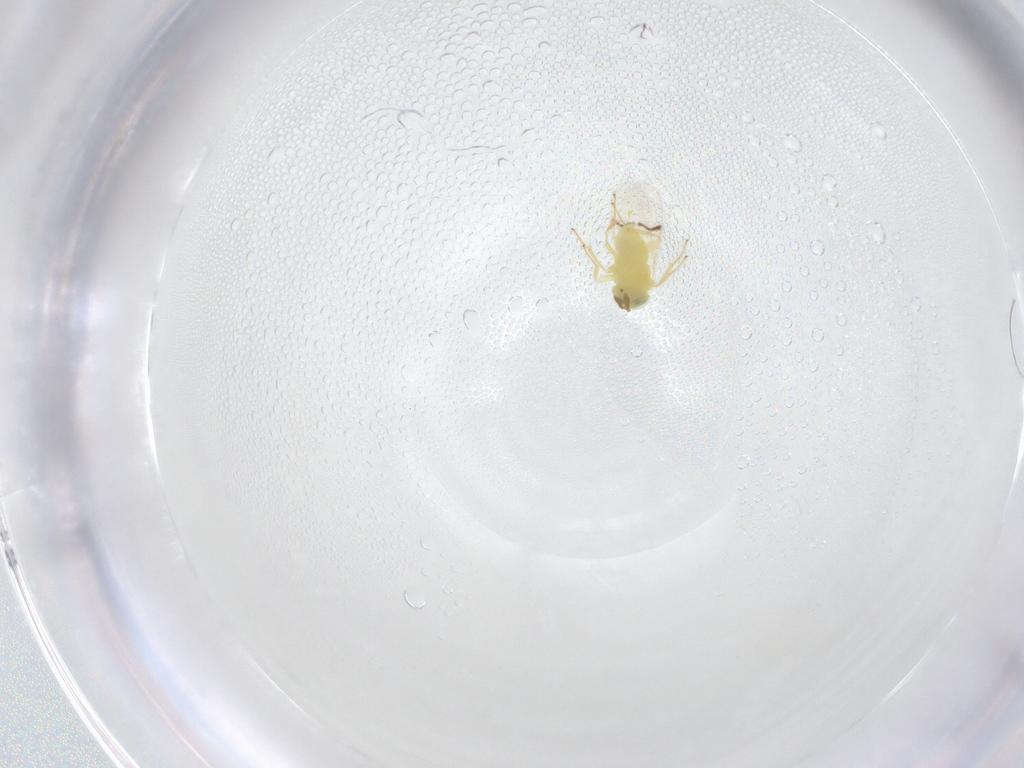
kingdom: Animalia
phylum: Arthropoda
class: Insecta
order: Hymenoptera
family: Aphelinidae
